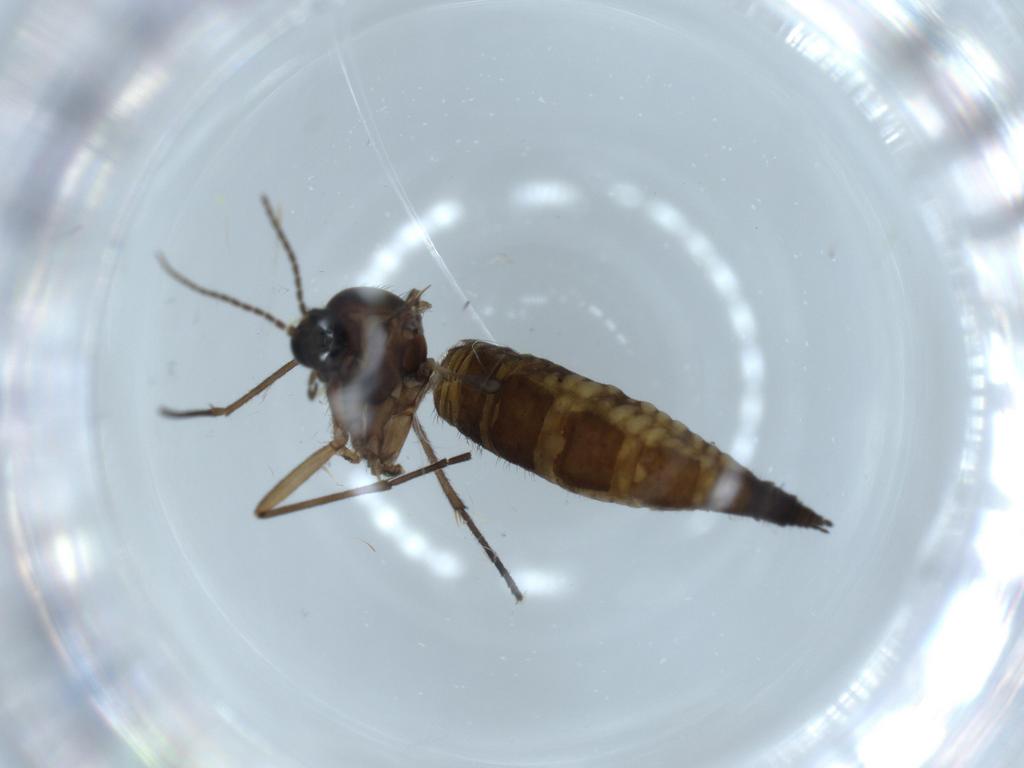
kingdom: Animalia
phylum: Arthropoda
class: Insecta
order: Diptera
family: Sciaridae
